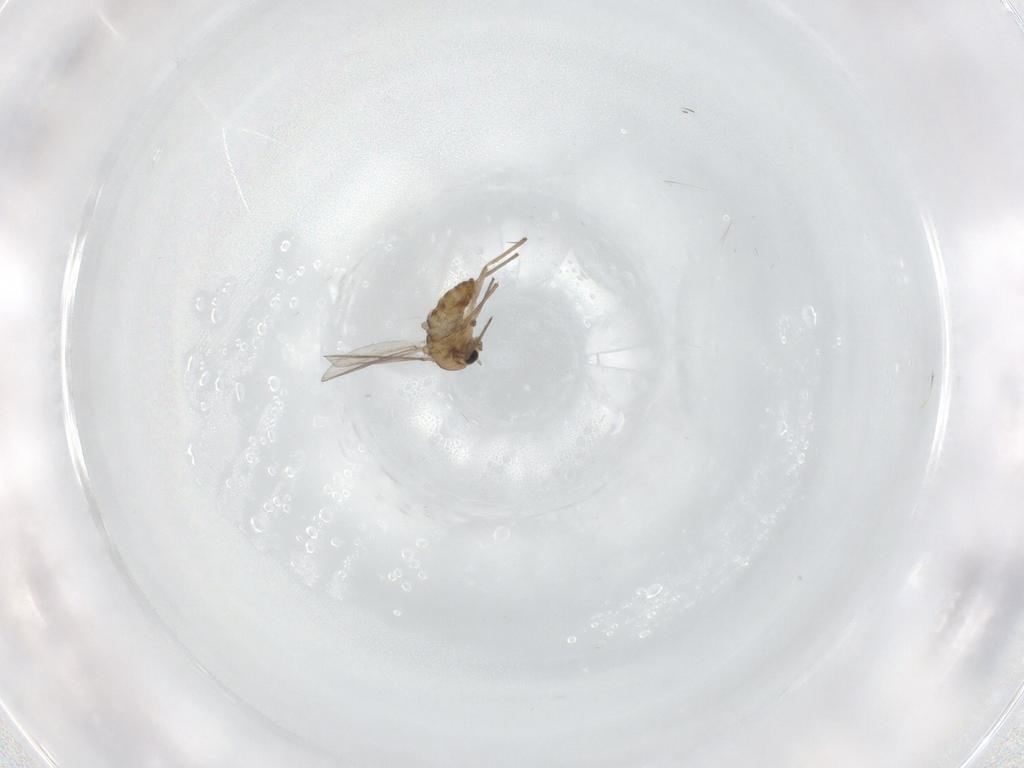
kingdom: Animalia
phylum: Arthropoda
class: Insecta
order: Diptera
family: Chironomidae
